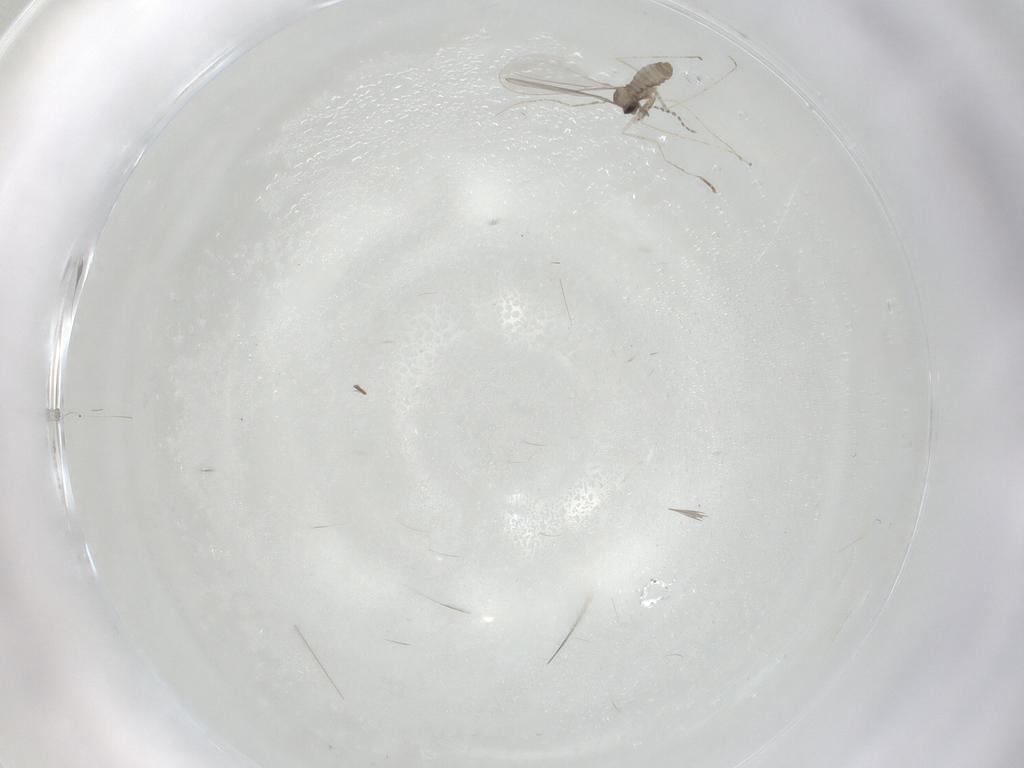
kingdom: Animalia
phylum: Arthropoda
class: Insecta
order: Diptera
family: Cecidomyiidae
